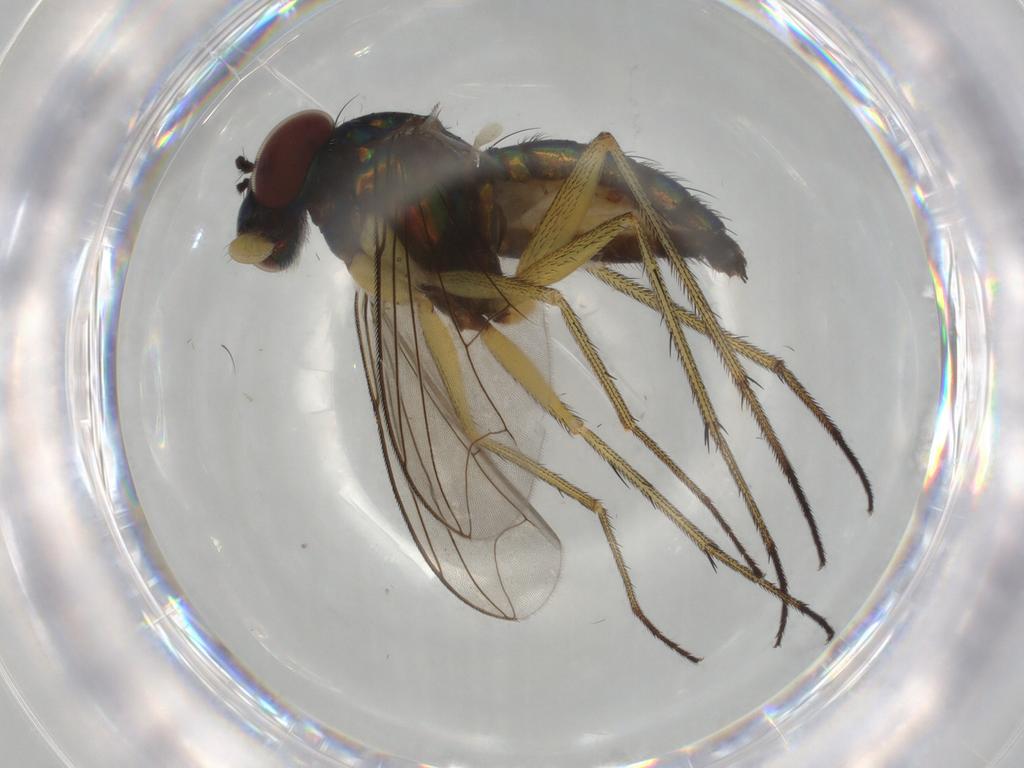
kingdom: Animalia
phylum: Arthropoda
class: Insecta
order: Diptera
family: Dolichopodidae
